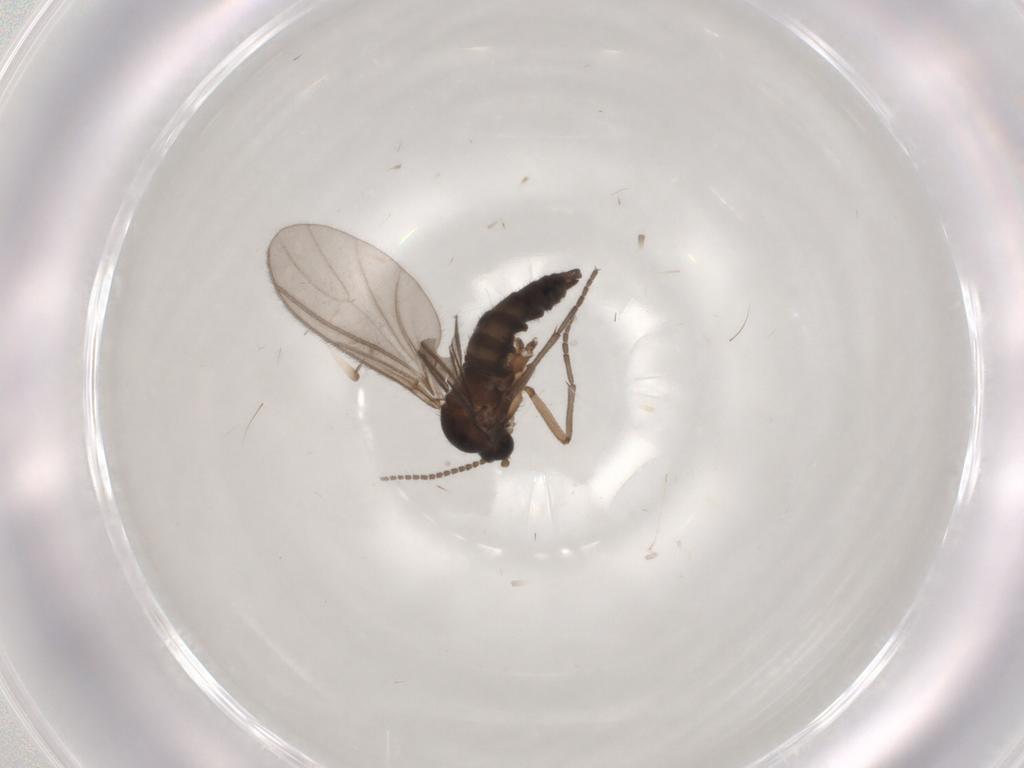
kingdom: Animalia
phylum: Arthropoda
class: Insecta
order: Diptera
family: Sciaridae
